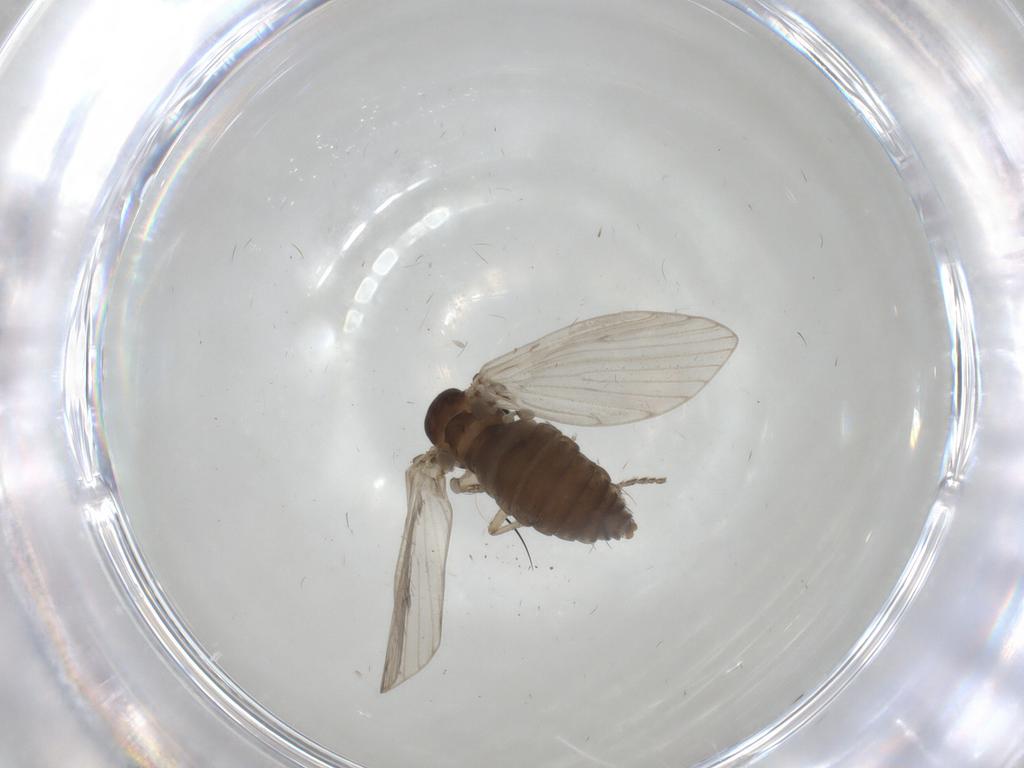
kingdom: Animalia
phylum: Arthropoda
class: Insecta
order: Diptera
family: Psychodidae
